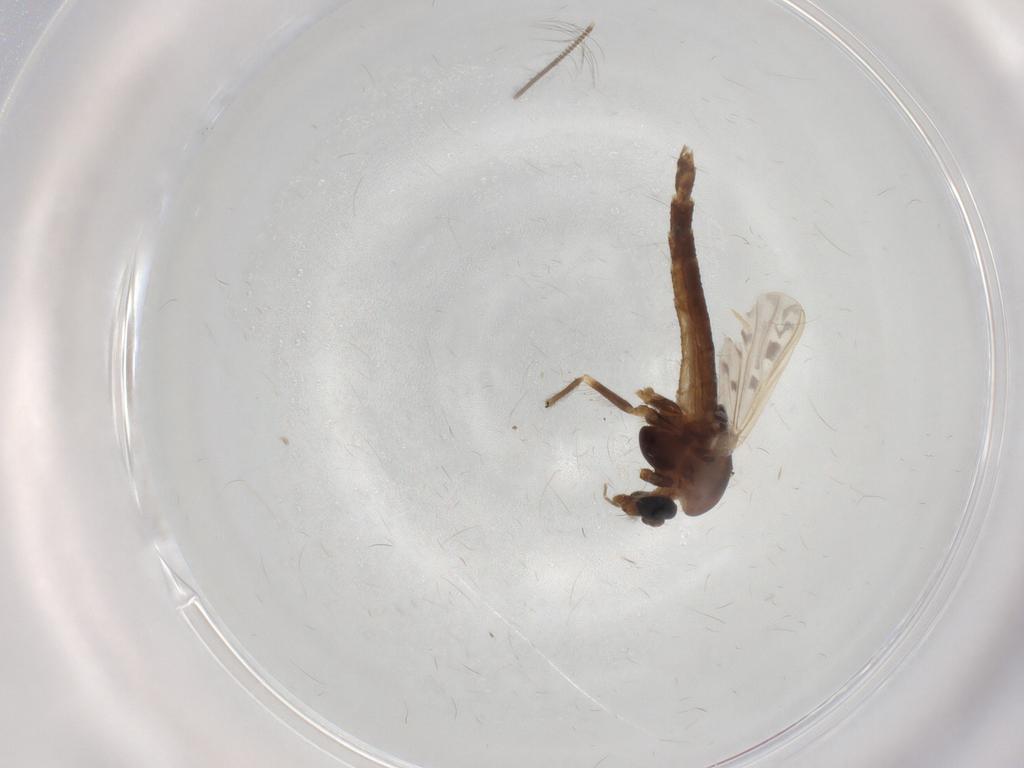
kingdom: Animalia
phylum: Arthropoda
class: Insecta
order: Diptera
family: Chironomidae
